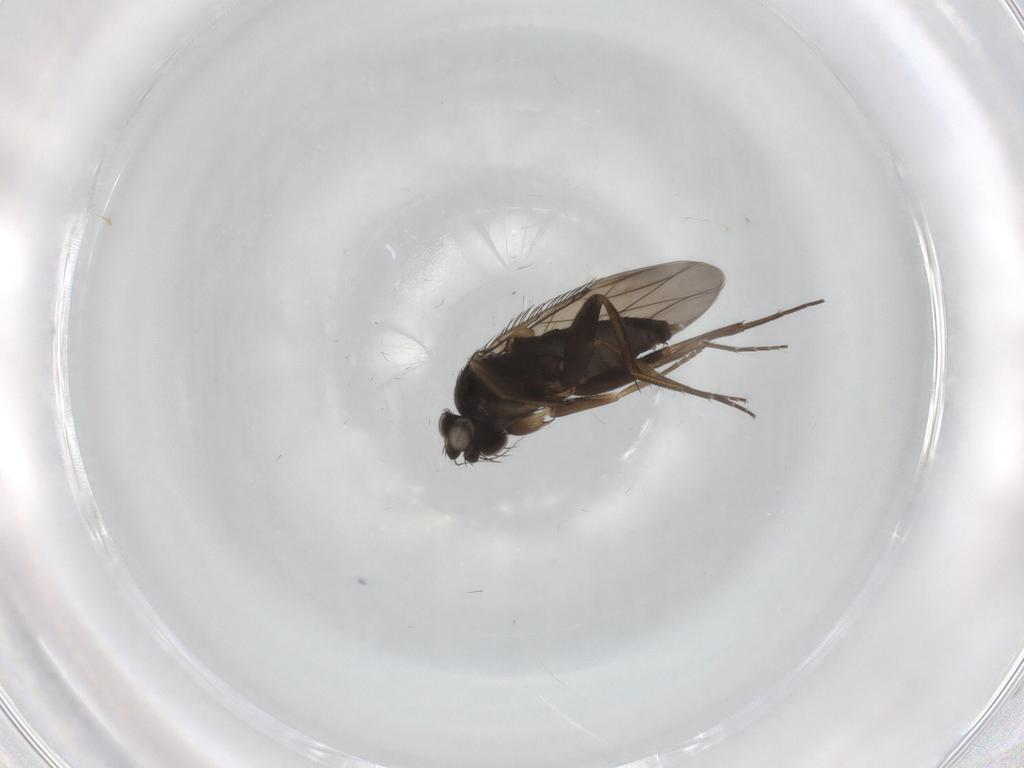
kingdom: Animalia
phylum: Arthropoda
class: Insecta
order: Diptera
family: Phoridae
